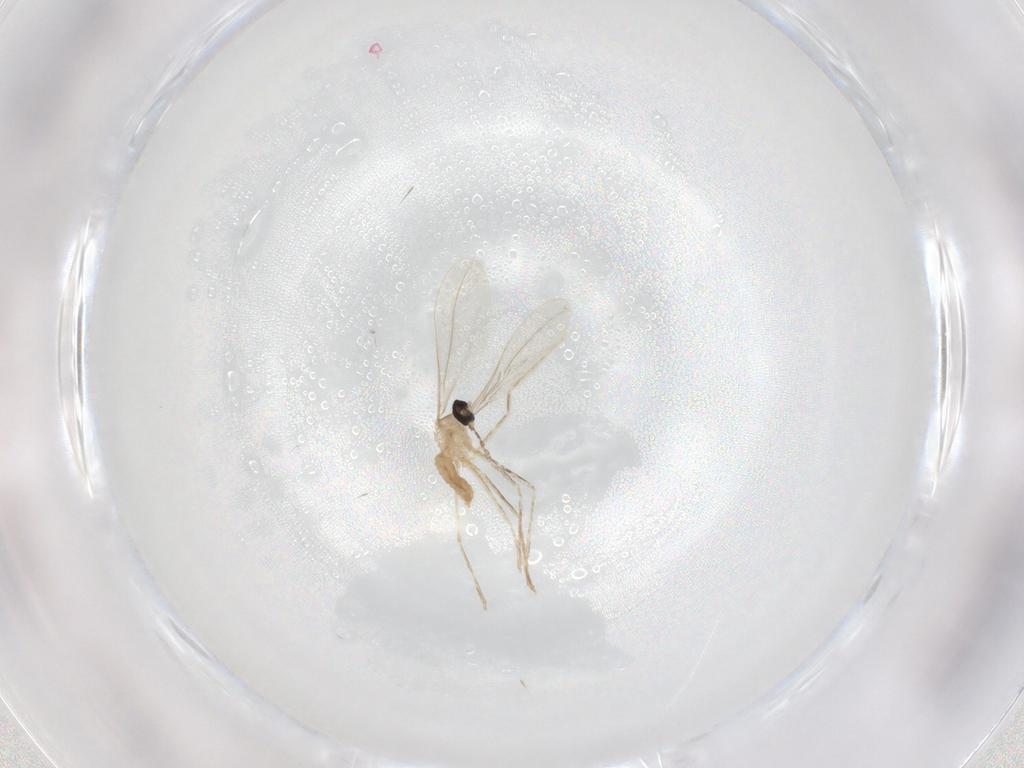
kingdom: Animalia
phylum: Arthropoda
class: Insecta
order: Diptera
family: Cecidomyiidae
